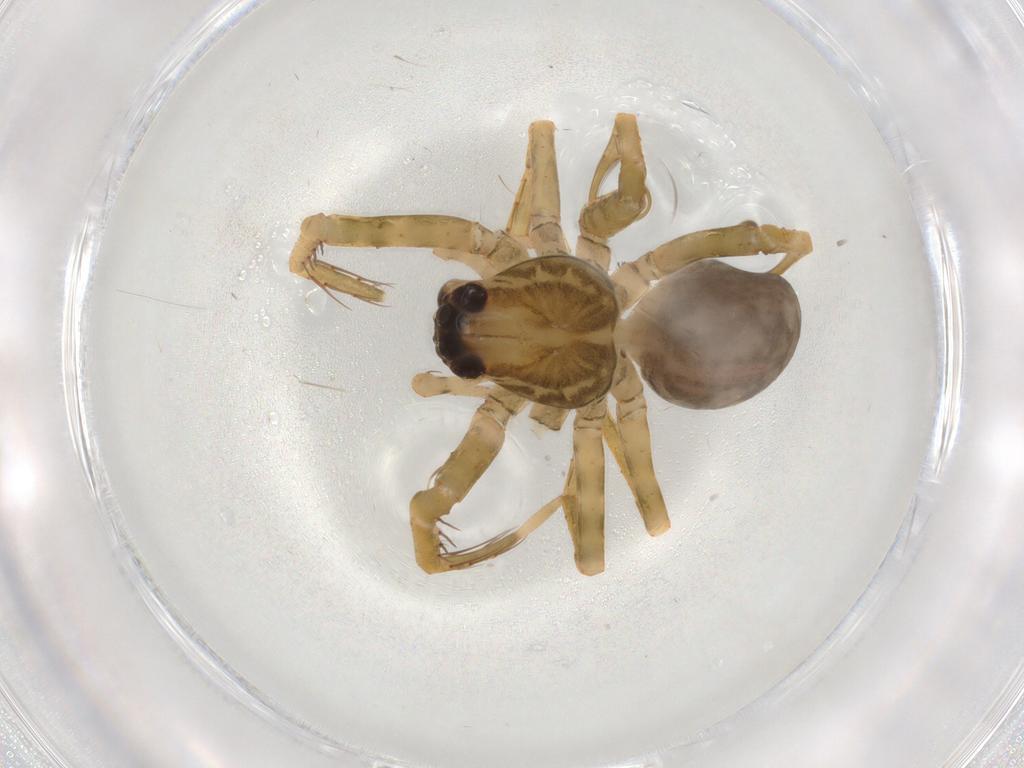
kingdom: Animalia
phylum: Arthropoda
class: Arachnida
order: Araneae
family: Ctenidae
